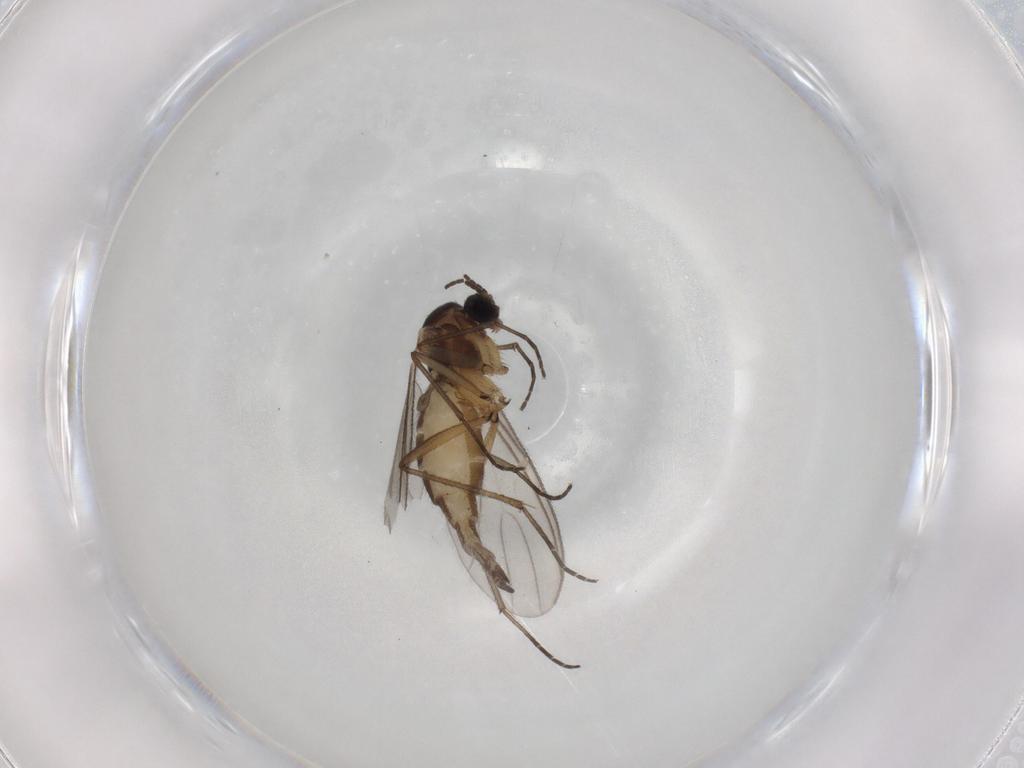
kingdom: Animalia
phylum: Arthropoda
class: Insecta
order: Diptera
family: Sciaridae
